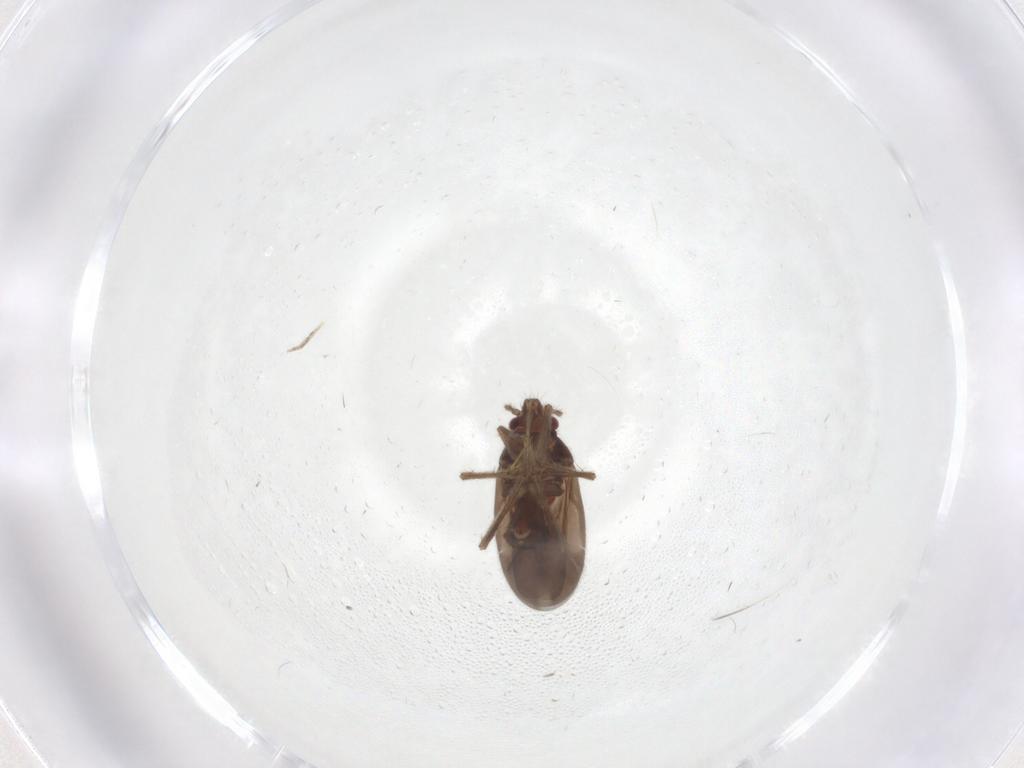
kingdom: Animalia
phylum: Arthropoda
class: Insecta
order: Hemiptera
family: Ceratocombidae
